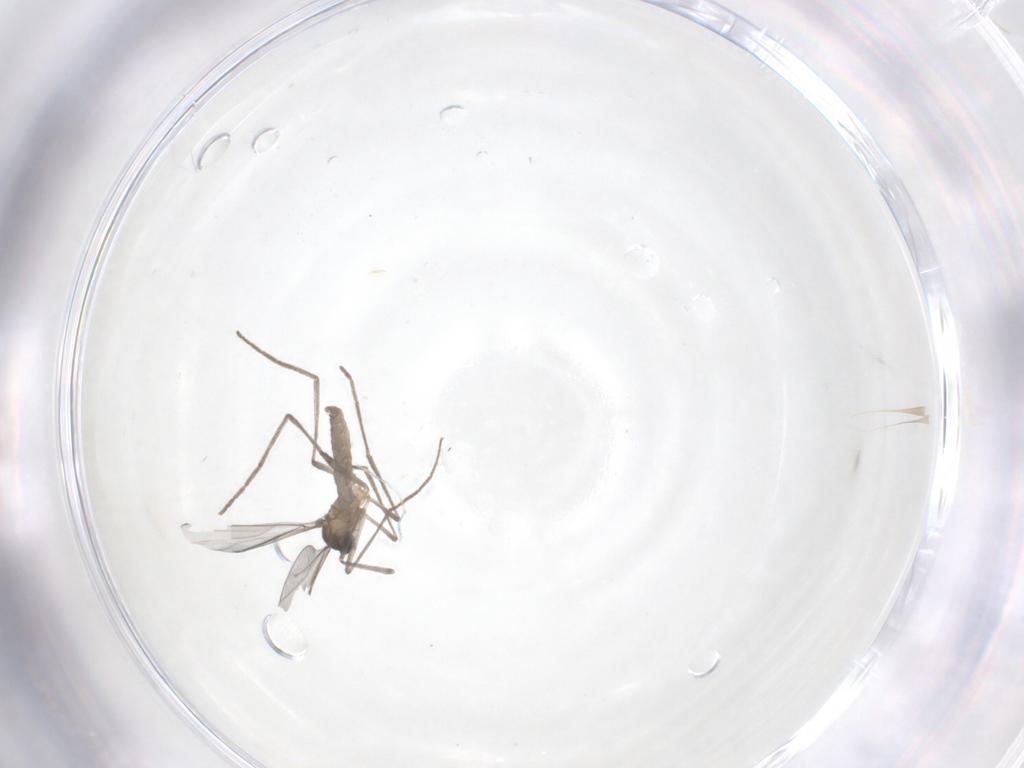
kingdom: Animalia
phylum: Arthropoda
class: Insecta
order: Diptera
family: Cecidomyiidae
